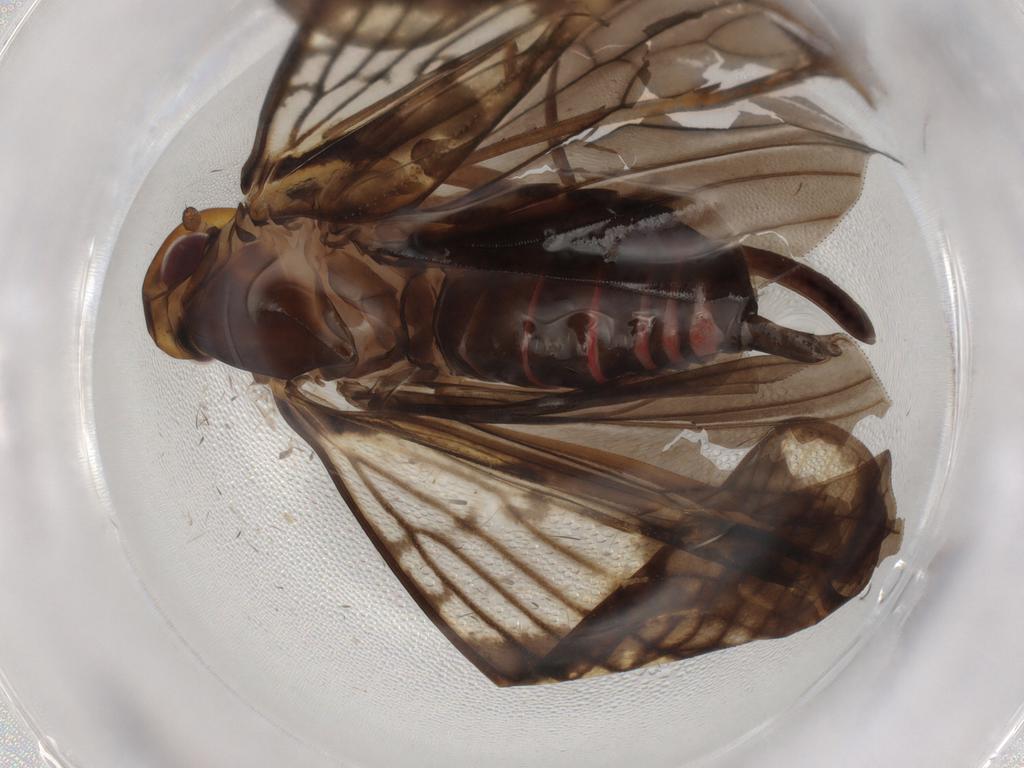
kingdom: Animalia
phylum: Arthropoda
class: Insecta
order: Hemiptera
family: Cixiidae
